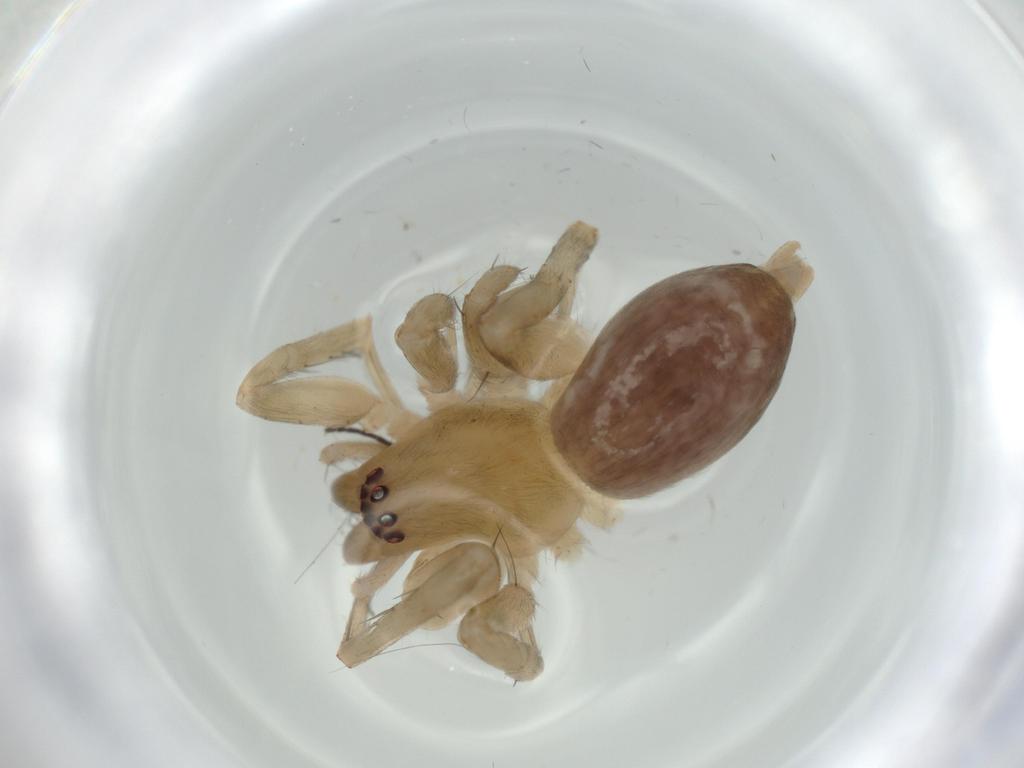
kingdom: Animalia
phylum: Arthropoda
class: Arachnida
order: Araneae
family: Amaurobiidae
